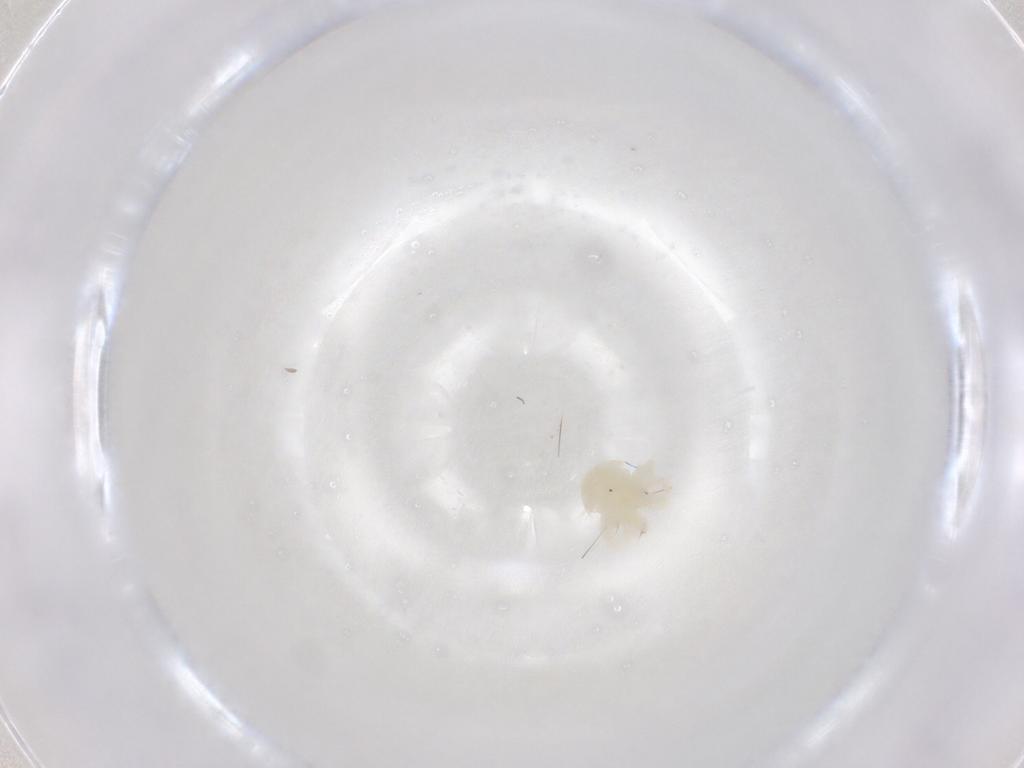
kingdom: Animalia
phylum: Arthropoda
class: Arachnida
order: Trombidiformes
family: Anystidae
